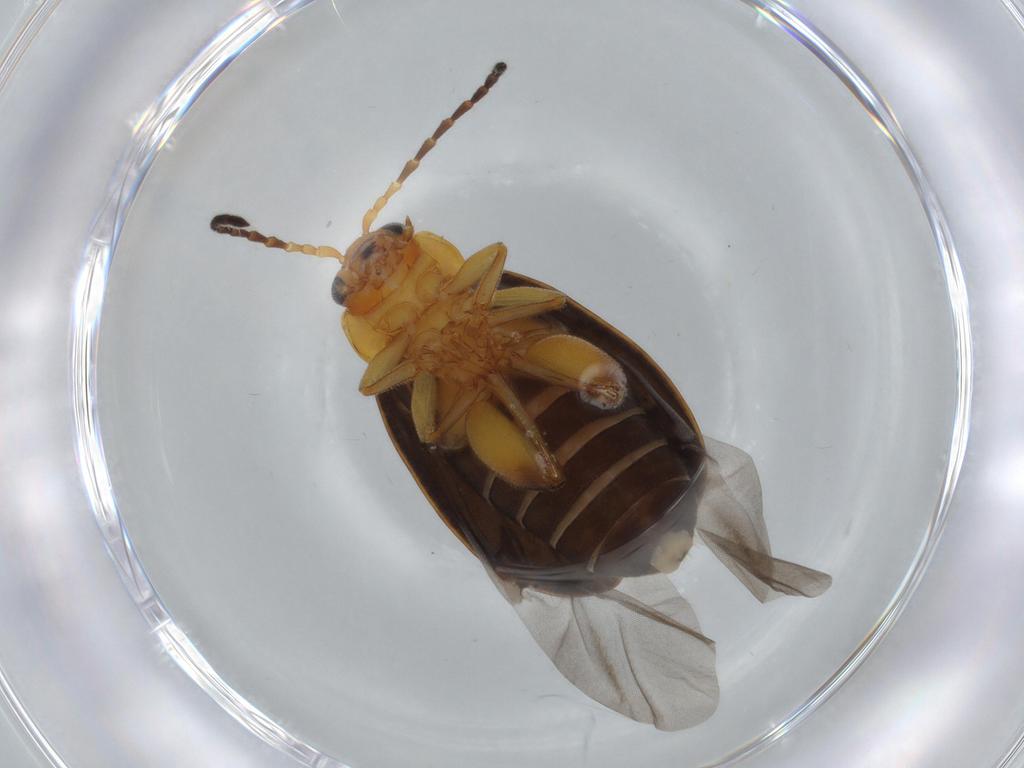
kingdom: Animalia
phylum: Arthropoda
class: Insecta
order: Coleoptera
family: Chrysomelidae
